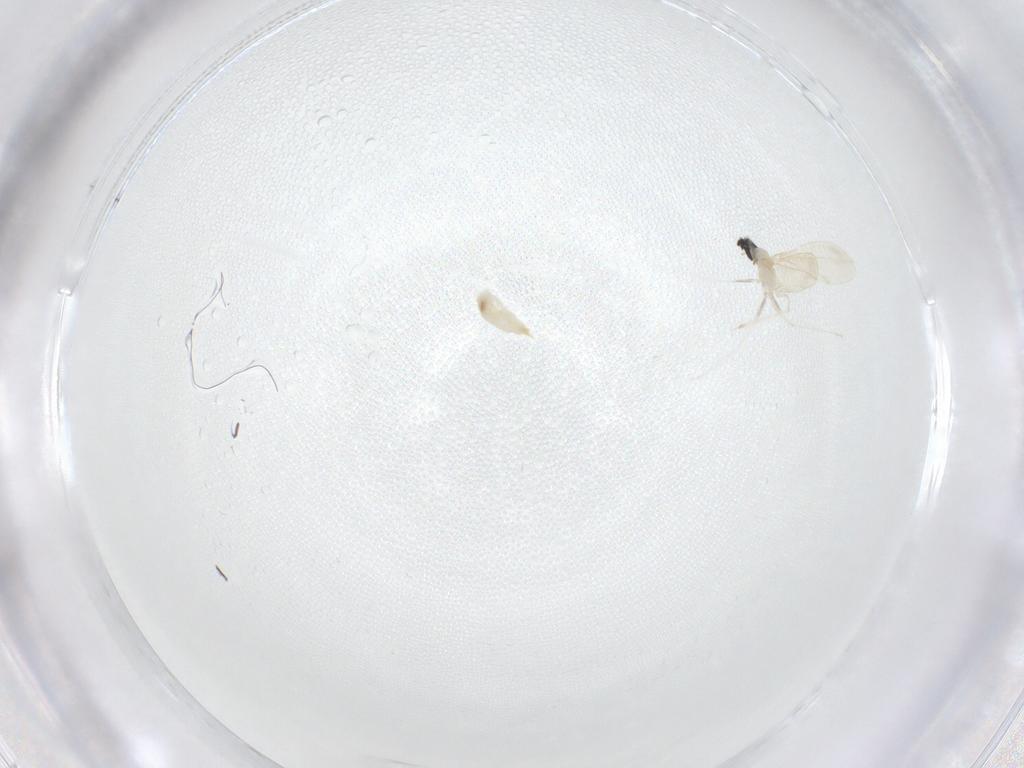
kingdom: Animalia
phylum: Arthropoda
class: Insecta
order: Diptera
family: Cecidomyiidae
